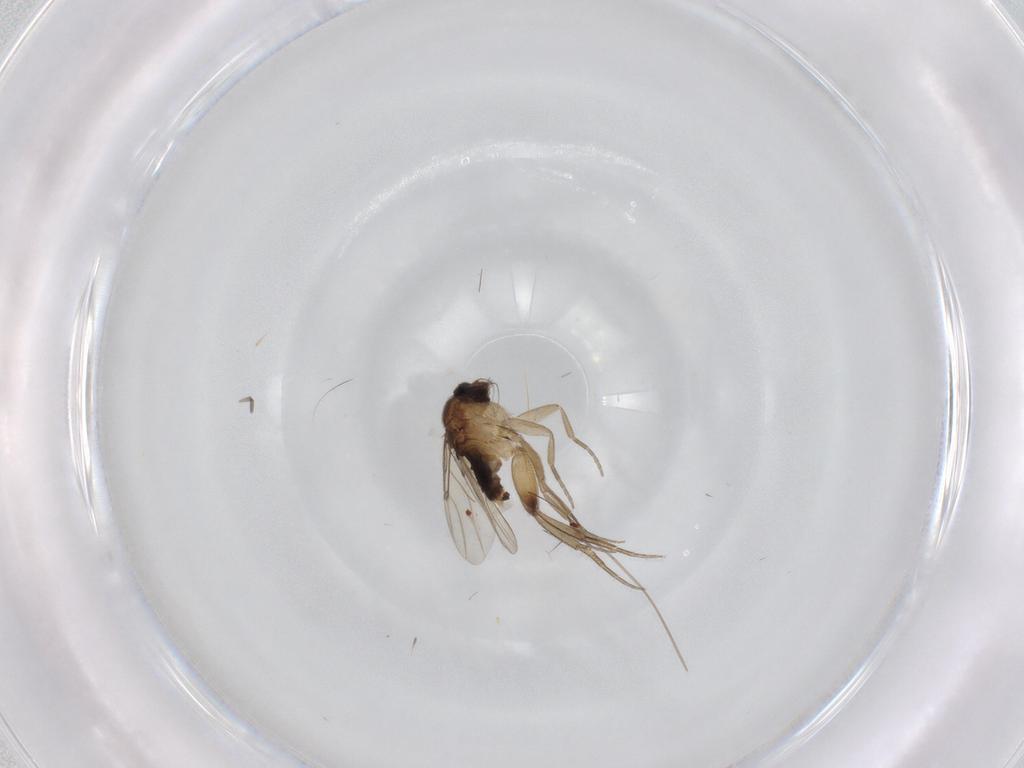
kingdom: Animalia
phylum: Arthropoda
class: Insecta
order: Diptera
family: Phoridae
